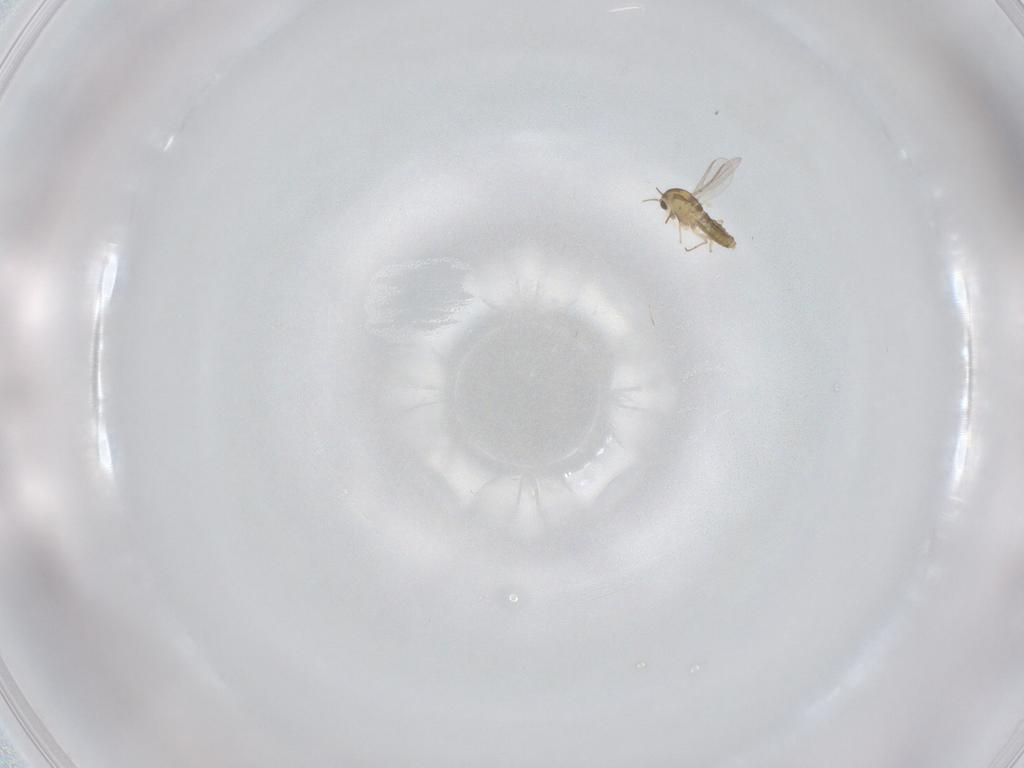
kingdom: Animalia
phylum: Arthropoda
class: Insecta
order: Diptera
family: Chironomidae
